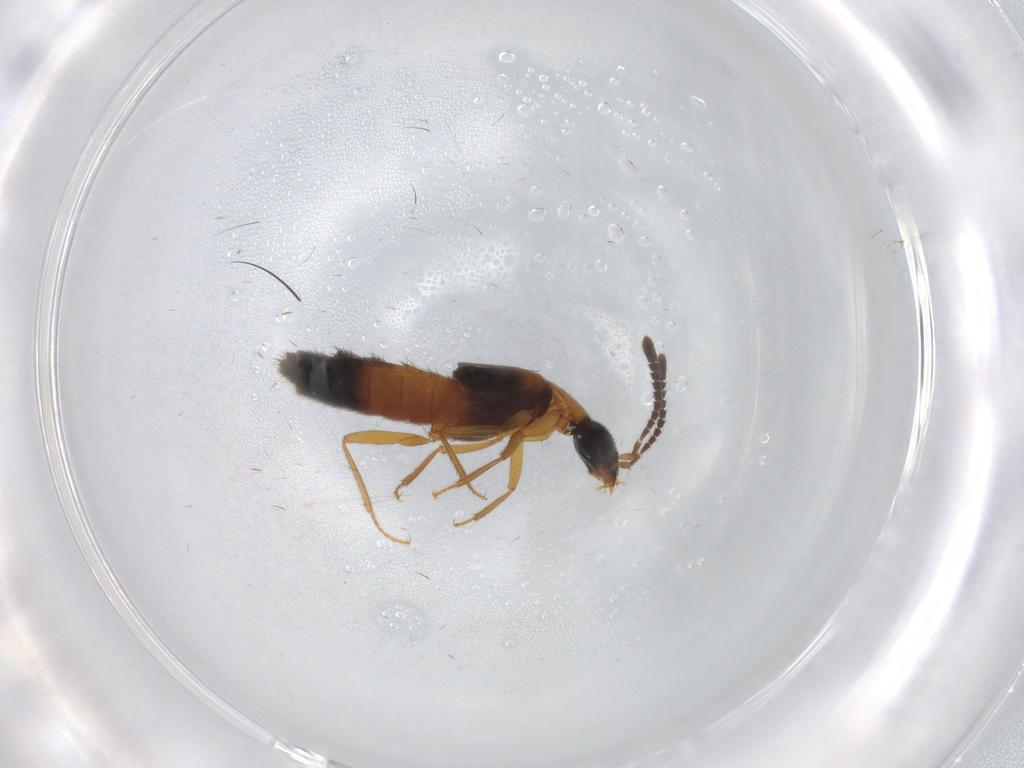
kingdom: Animalia
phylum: Arthropoda
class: Insecta
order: Coleoptera
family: Staphylinidae
